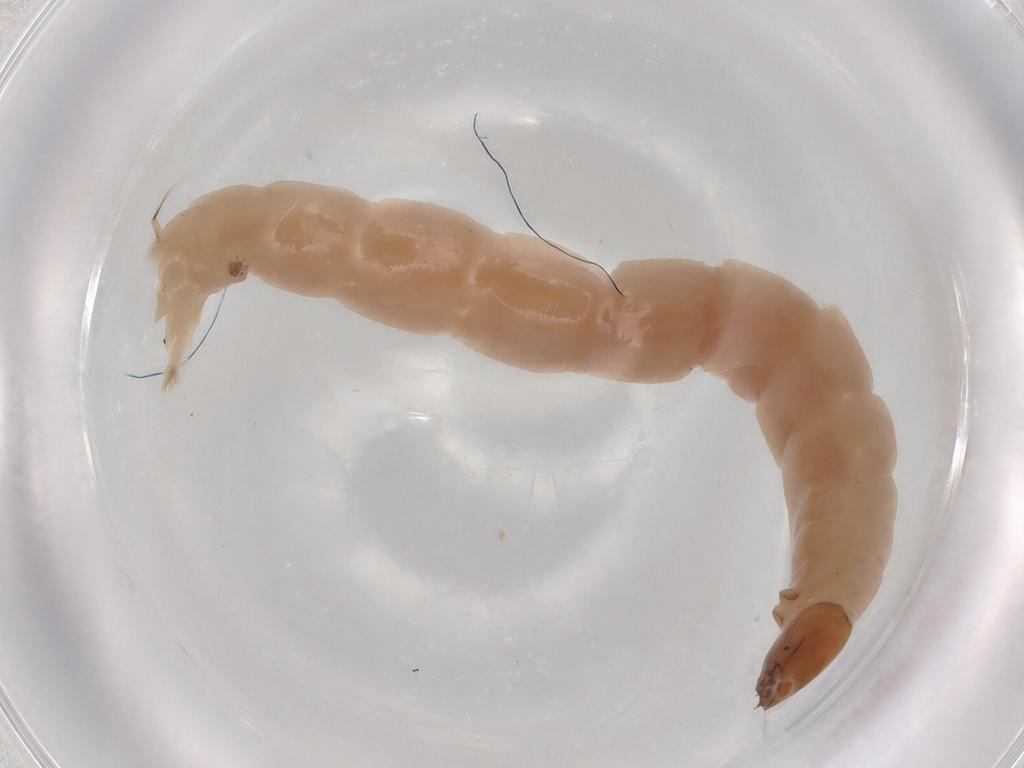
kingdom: Animalia
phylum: Arthropoda
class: Insecta
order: Diptera
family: Chironomidae
